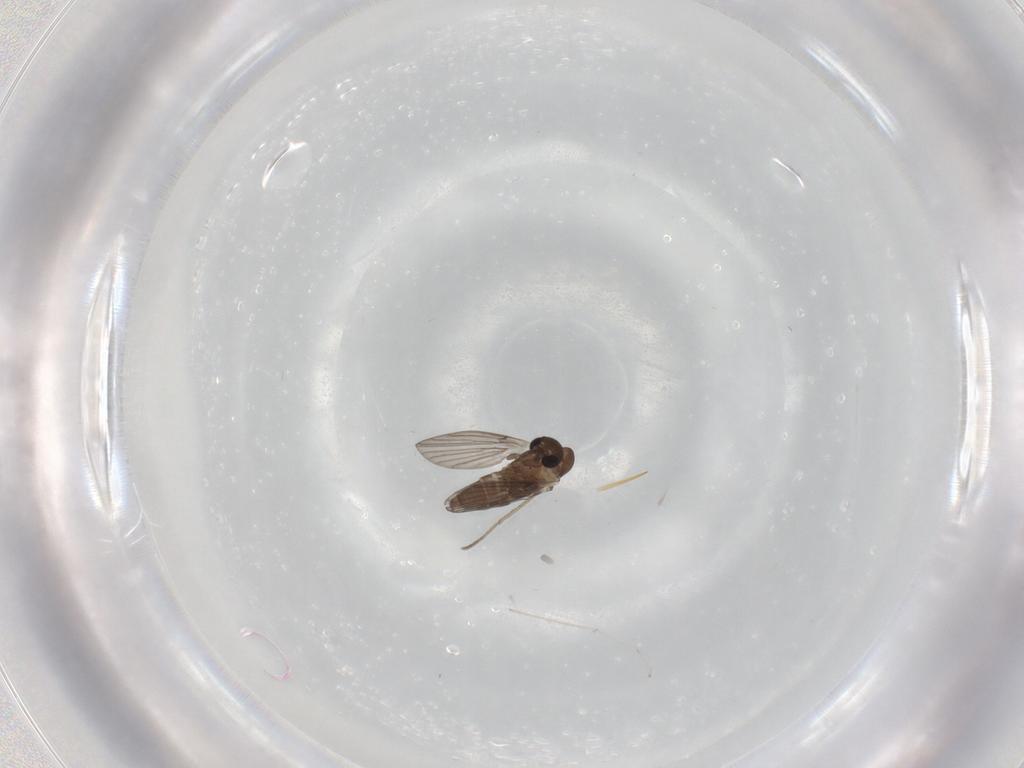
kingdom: Animalia
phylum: Arthropoda
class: Insecta
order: Diptera
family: Cecidomyiidae
